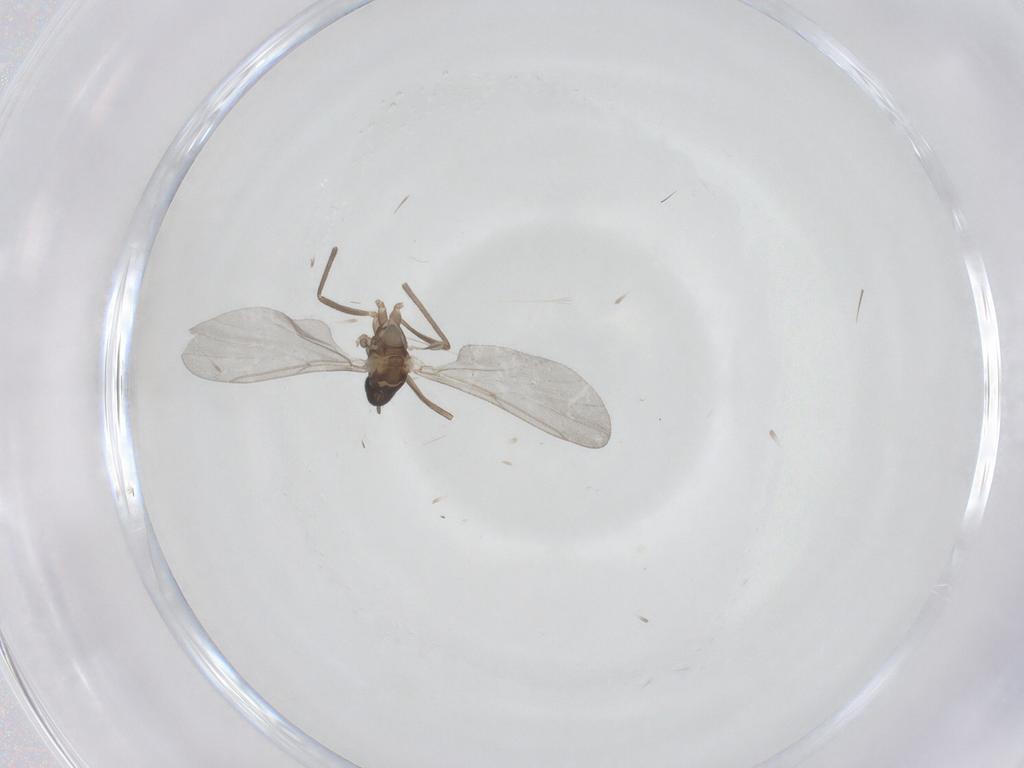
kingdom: Animalia
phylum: Arthropoda
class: Insecta
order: Diptera
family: Cecidomyiidae
